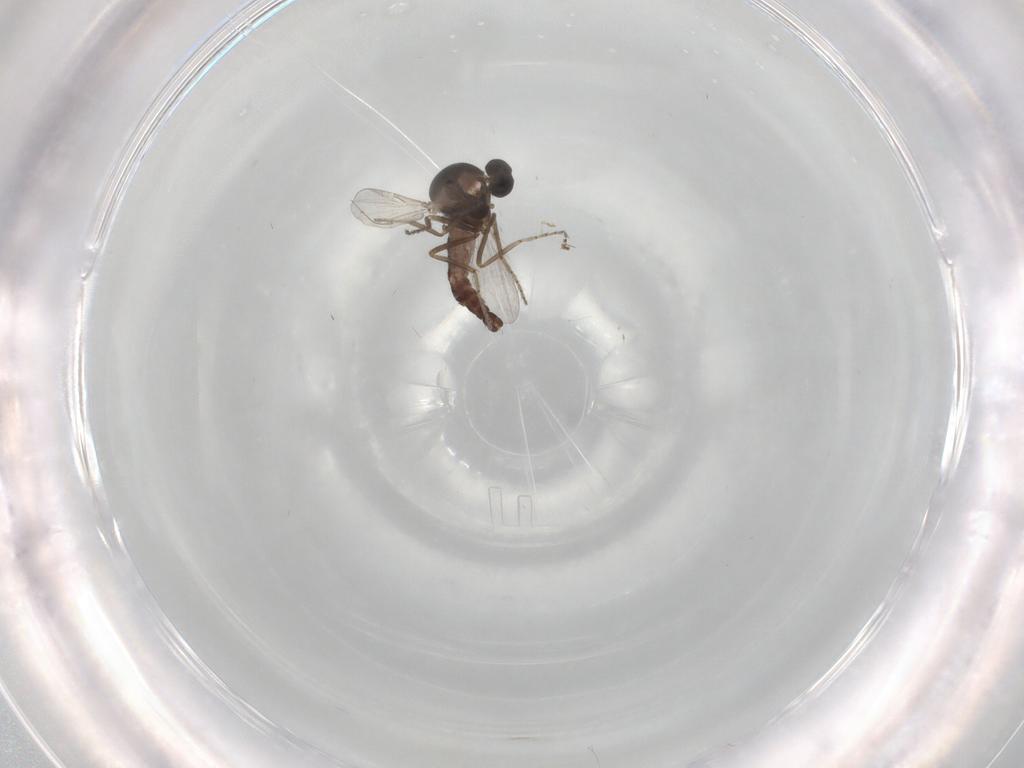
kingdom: Animalia
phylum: Arthropoda
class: Insecta
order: Diptera
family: Ceratopogonidae
